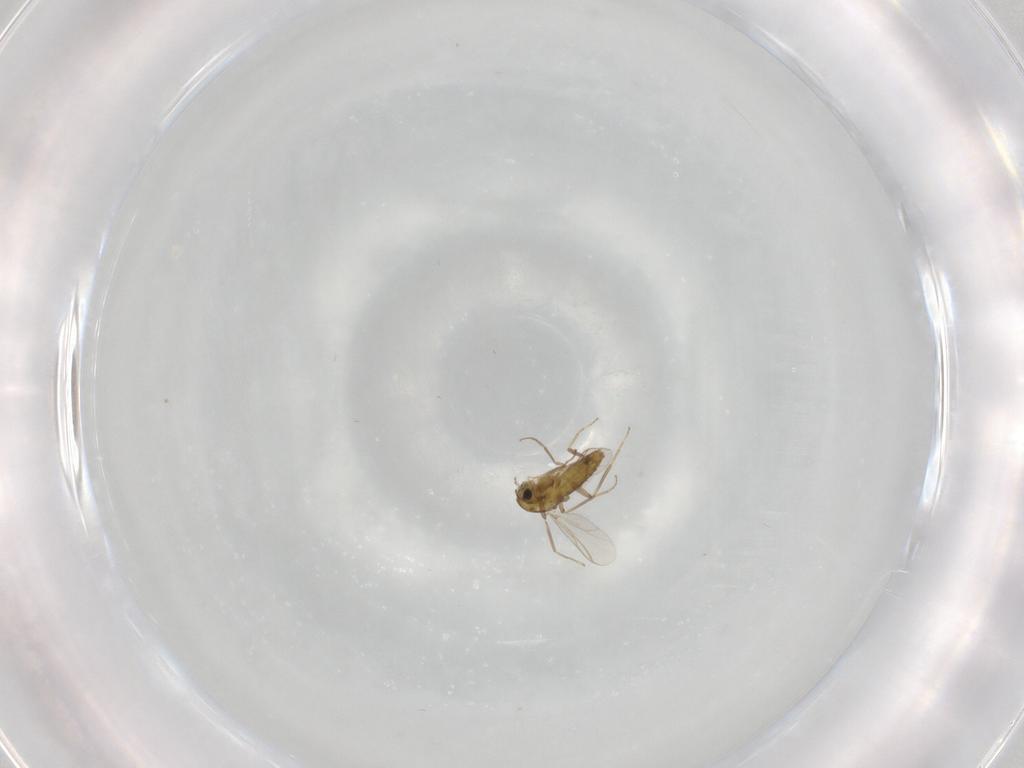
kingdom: Animalia
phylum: Arthropoda
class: Insecta
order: Diptera
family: Chironomidae
